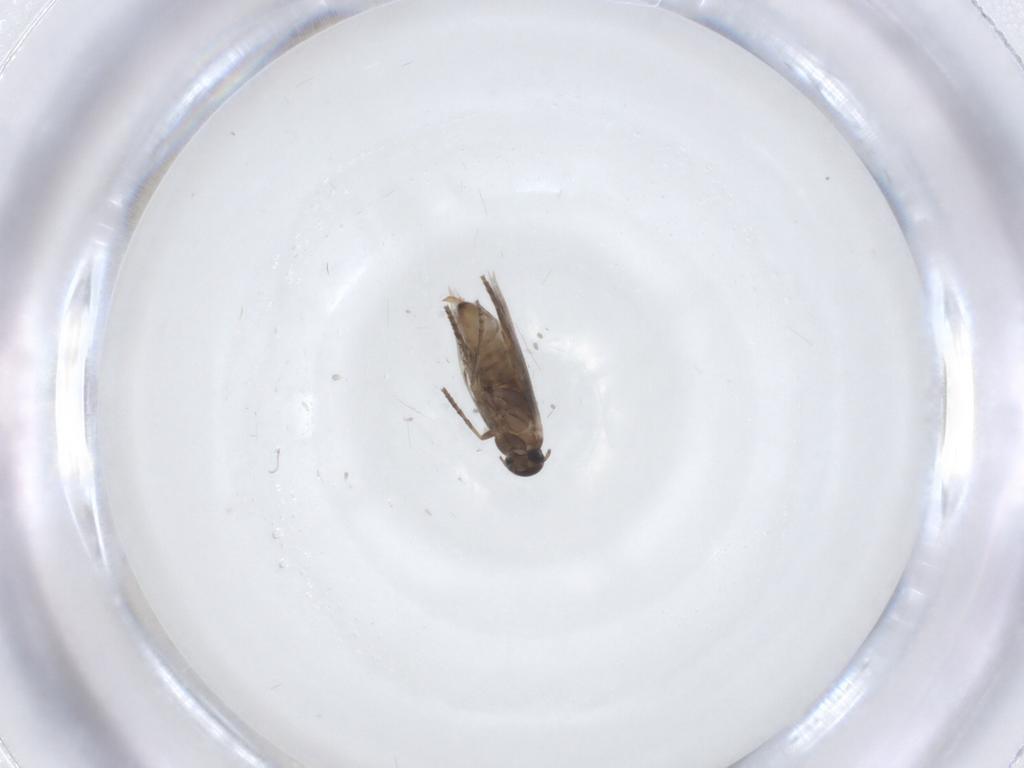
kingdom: Animalia
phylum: Arthropoda
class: Insecta
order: Lepidoptera
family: Heliozelidae
